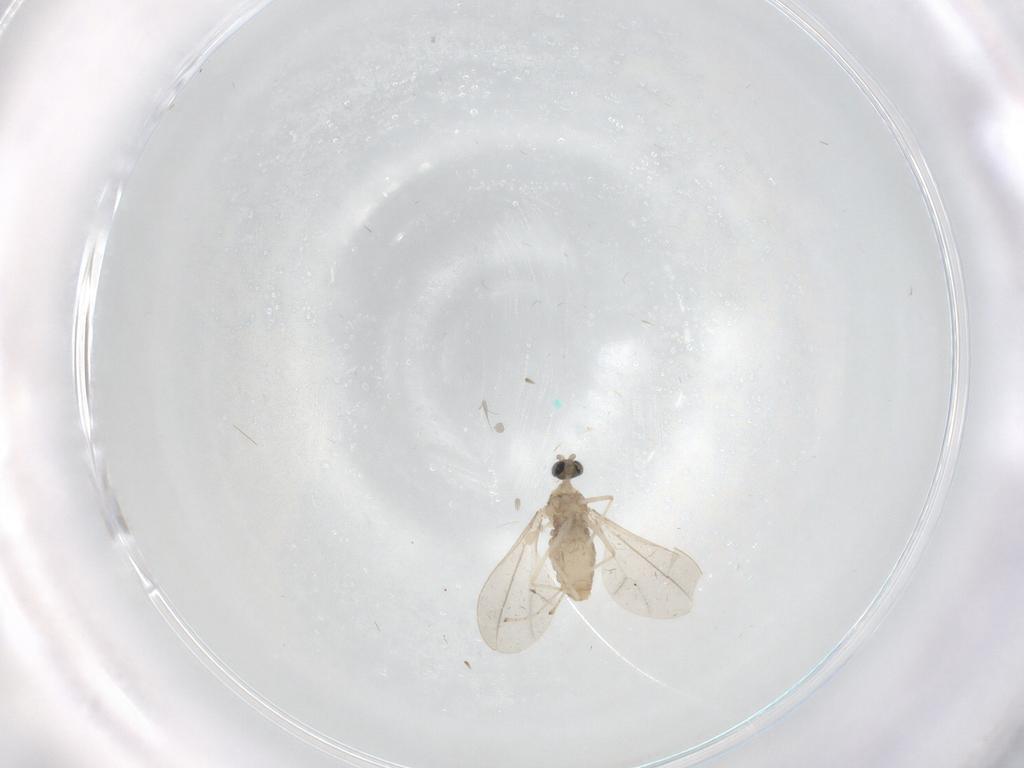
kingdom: Animalia
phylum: Arthropoda
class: Insecta
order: Diptera
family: Cecidomyiidae
